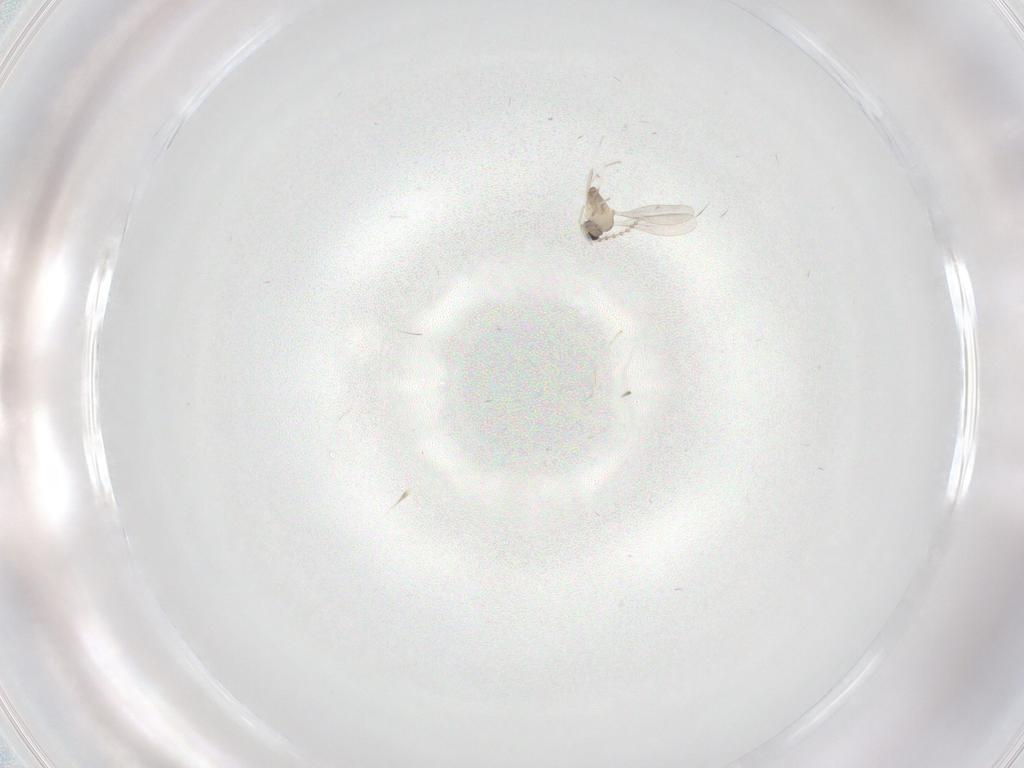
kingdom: Animalia
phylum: Arthropoda
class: Insecta
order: Diptera
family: Cecidomyiidae
